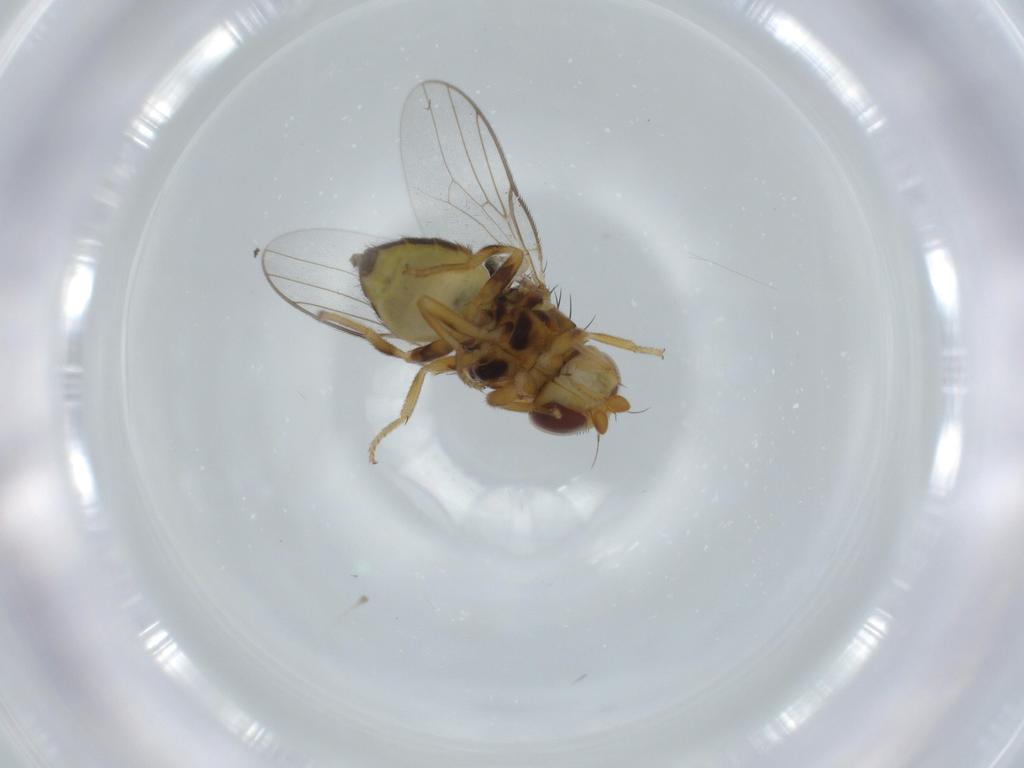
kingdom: Animalia
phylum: Arthropoda
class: Insecta
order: Diptera
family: Chloropidae
